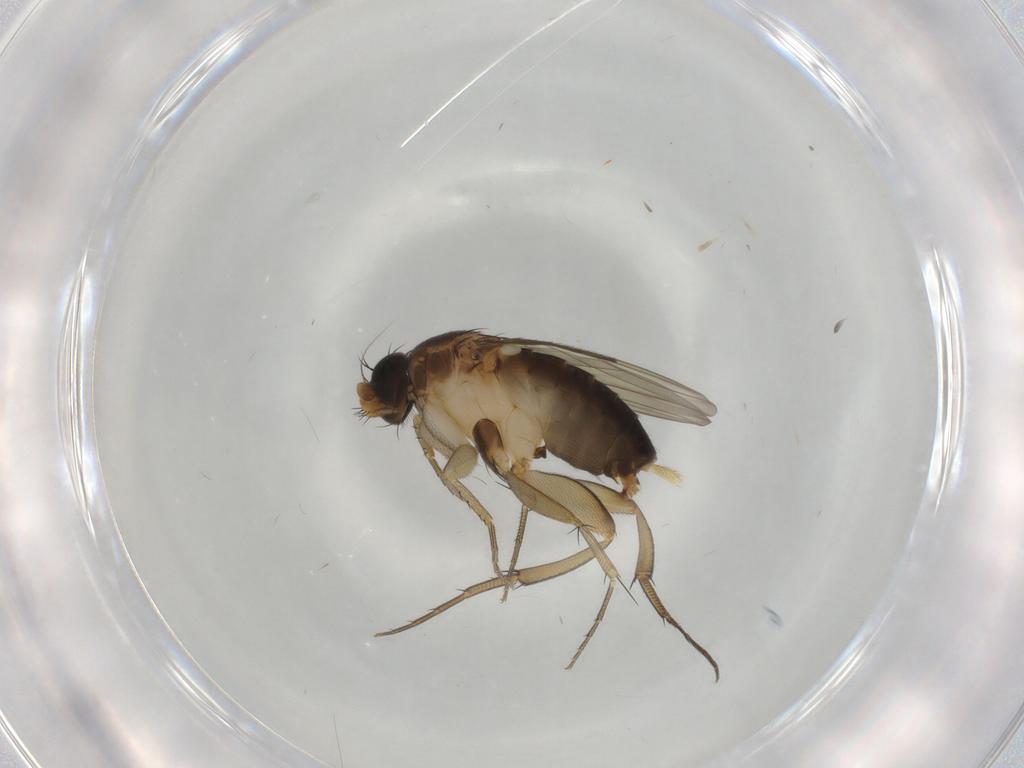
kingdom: Animalia
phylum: Arthropoda
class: Insecta
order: Diptera
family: Phoridae
